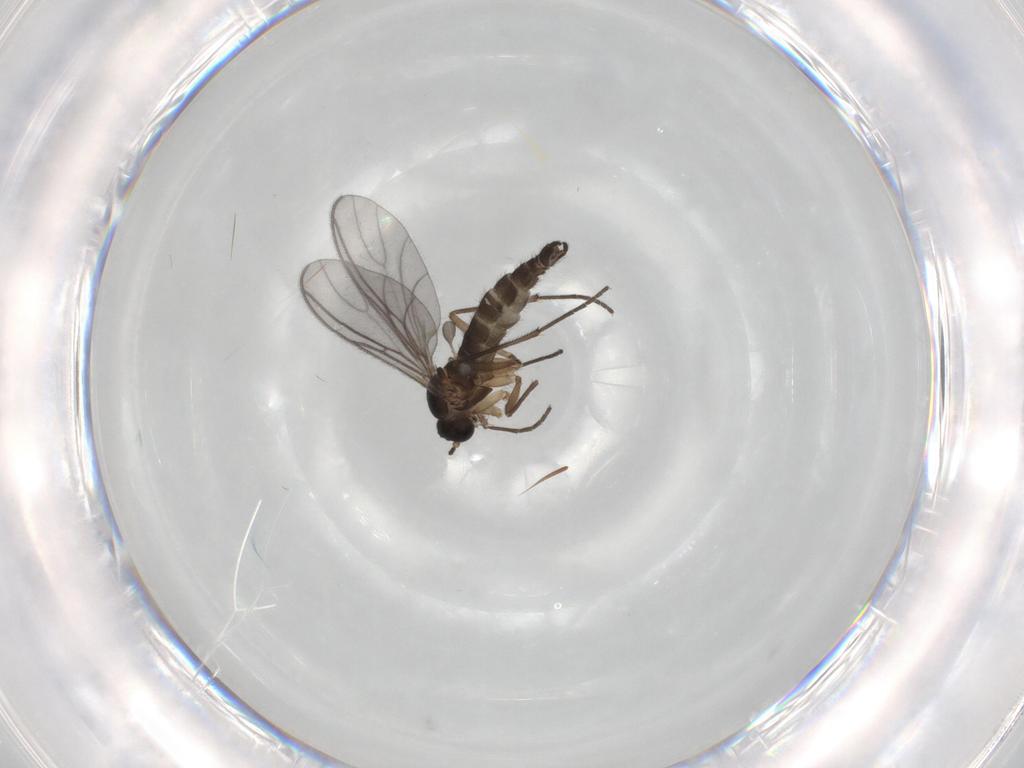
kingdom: Animalia
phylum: Arthropoda
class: Insecta
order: Diptera
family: Sciaridae
